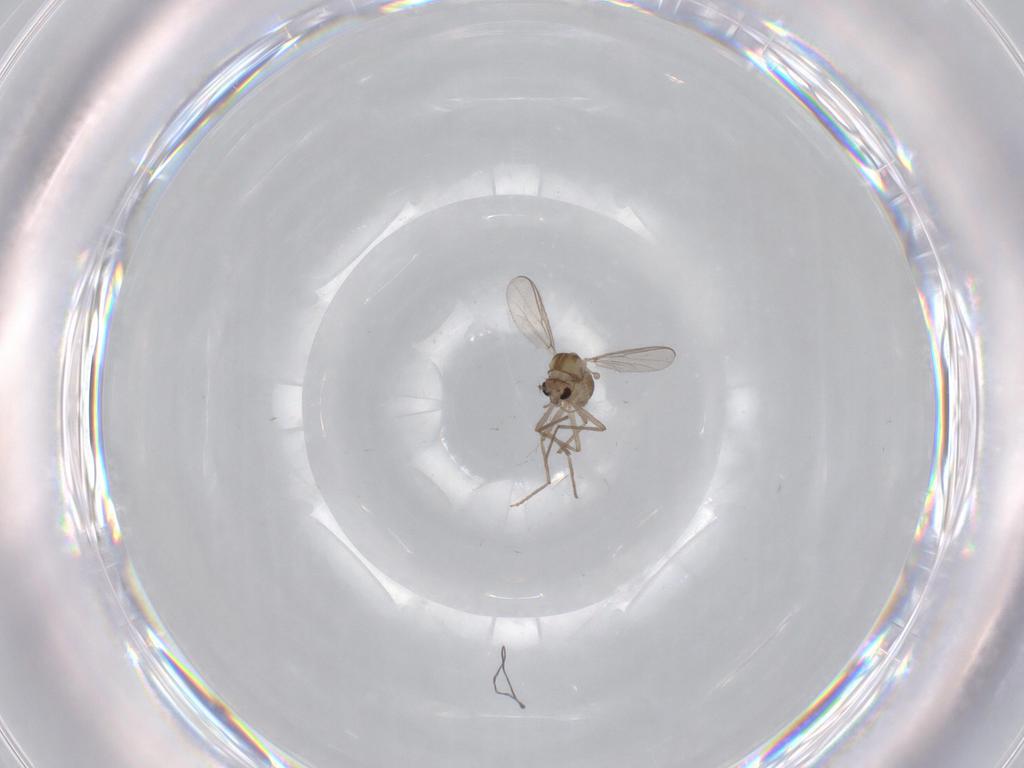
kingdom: Animalia
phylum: Arthropoda
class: Insecta
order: Diptera
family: Chironomidae
